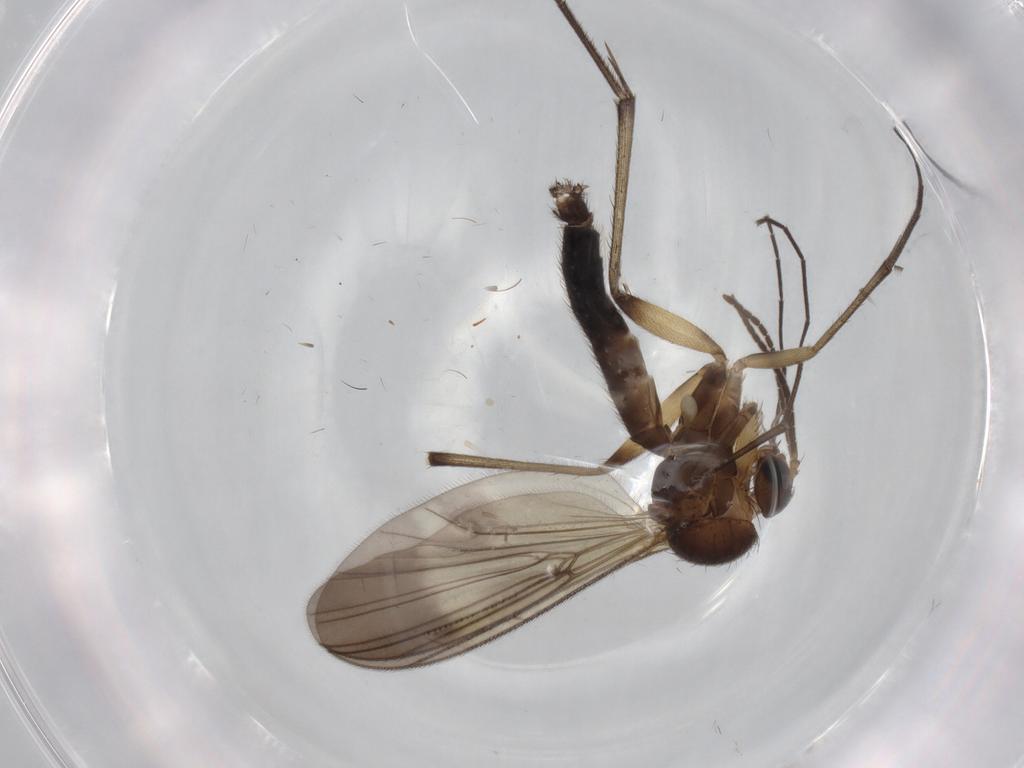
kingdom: Animalia
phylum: Arthropoda
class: Insecta
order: Diptera
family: Mycetophilidae
